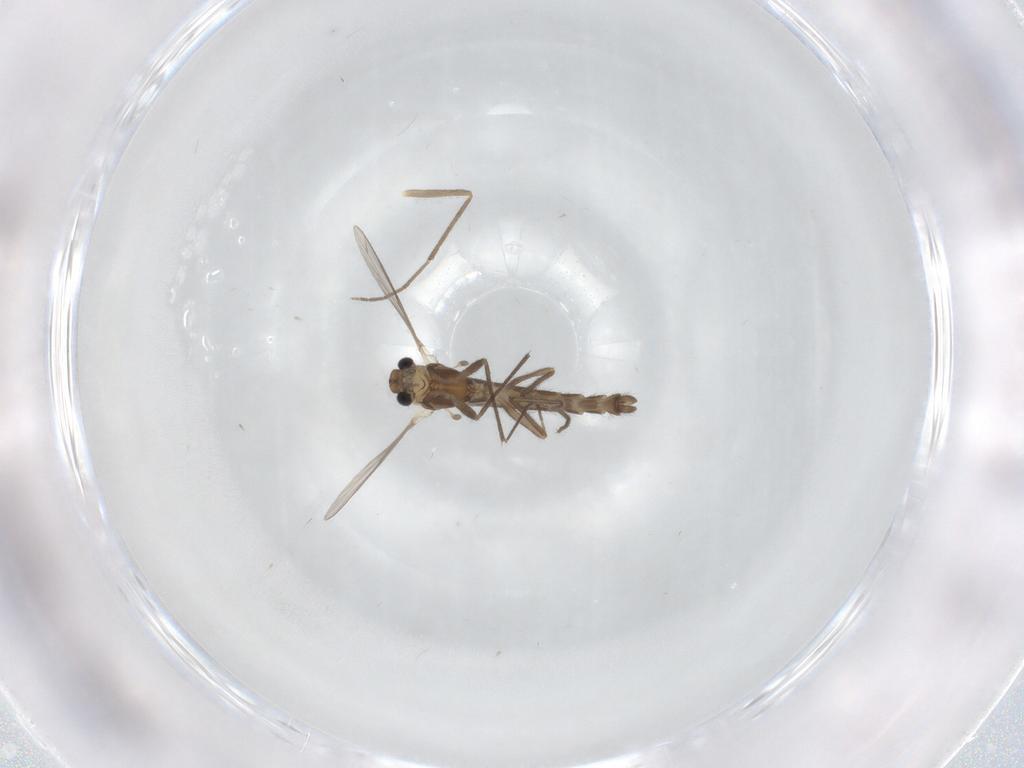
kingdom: Animalia
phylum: Arthropoda
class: Insecta
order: Diptera
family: Chironomidae
